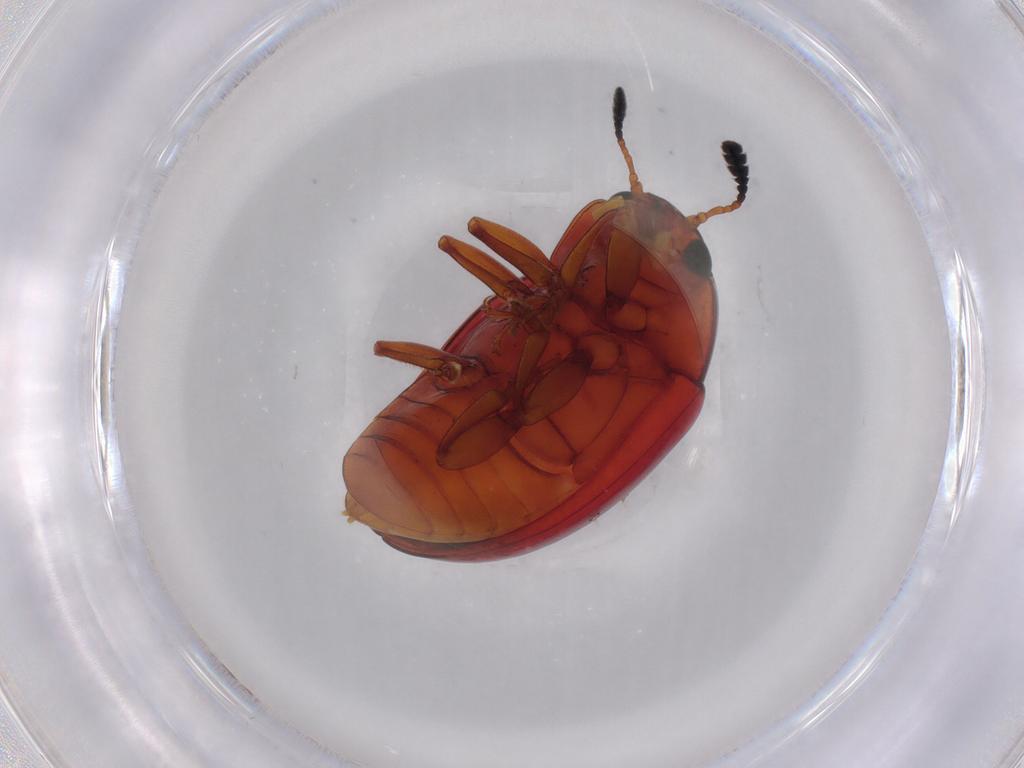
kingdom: Animalia
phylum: Arthropoda
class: Insecta
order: Coleoptera
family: Erotylidae
